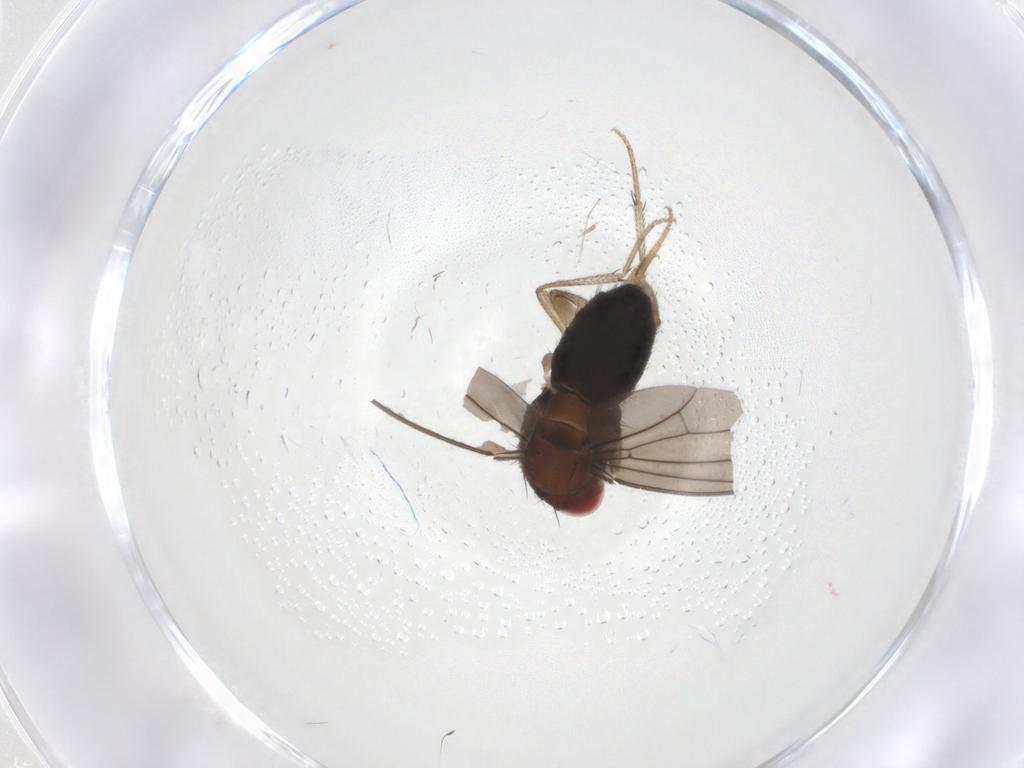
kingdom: Animalia
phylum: Arthropoda
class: Insecta
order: Diptera
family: Drosophilidae
